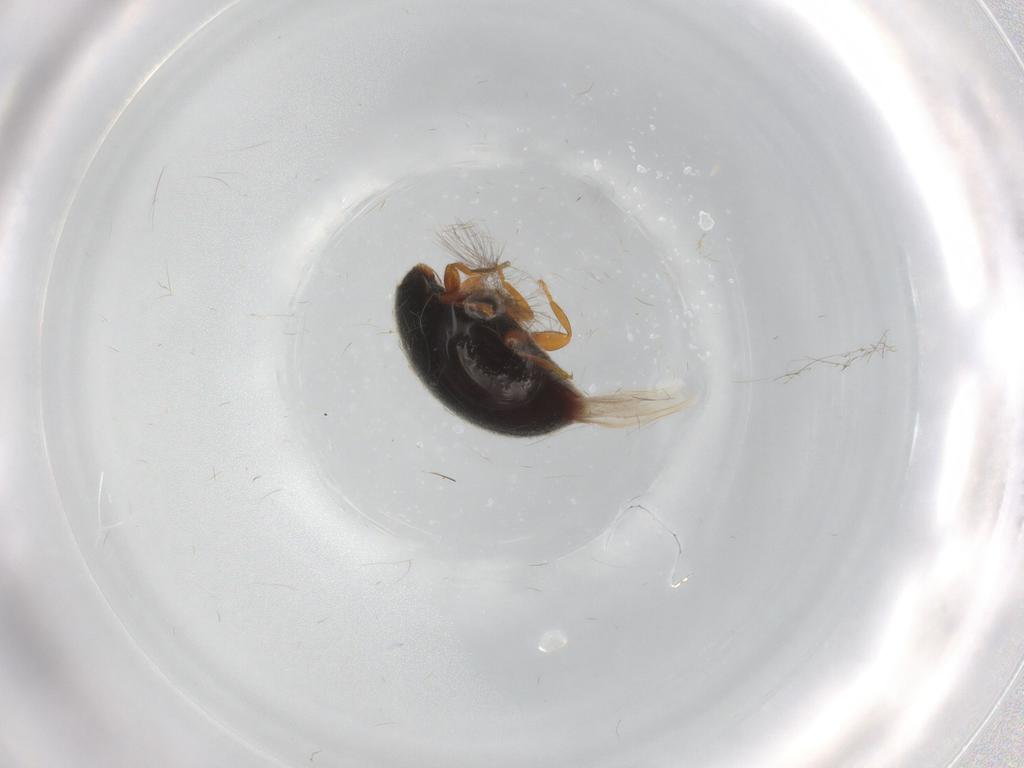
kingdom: Animalia
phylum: Arthropoda
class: Insecta
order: Coleoptera
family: Coccinellidae
